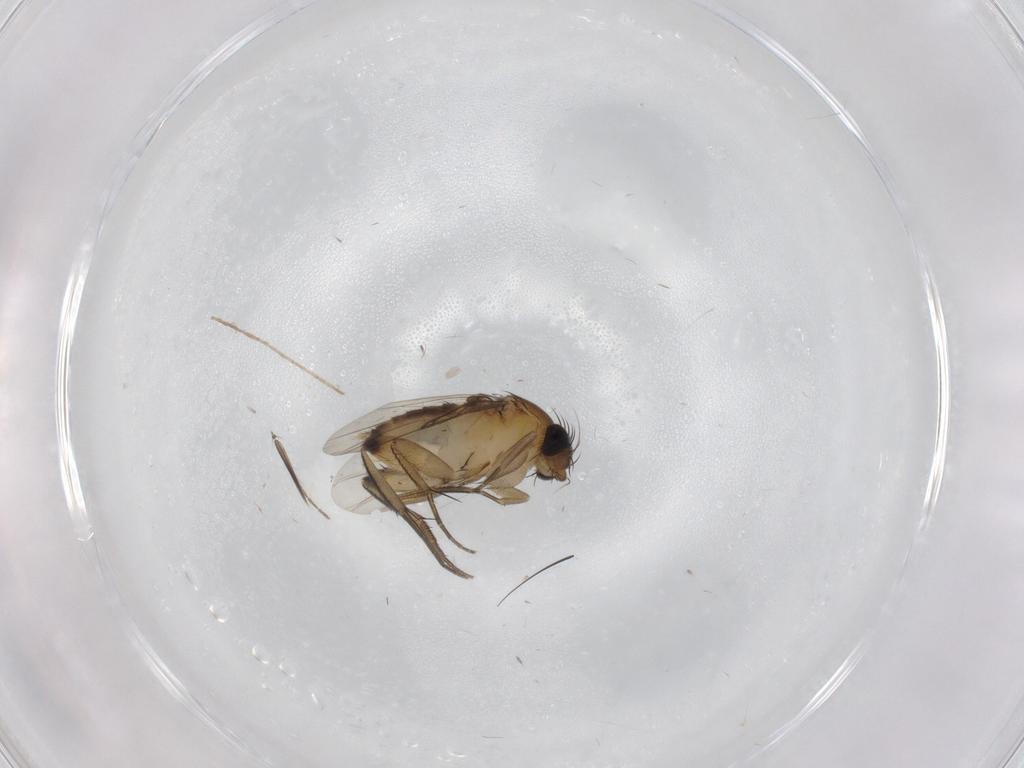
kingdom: Animalia
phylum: Arthropoda
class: Insecta
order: Diptera
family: Phoridae
